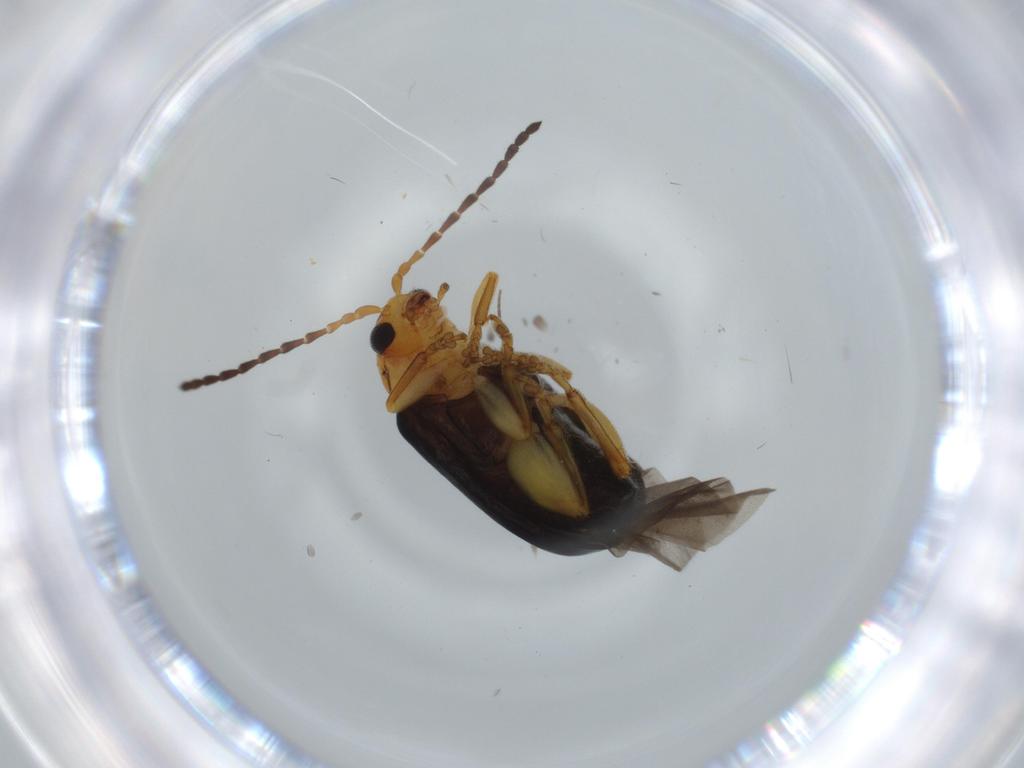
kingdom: Animalia
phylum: Arthropoda
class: Insecta
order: Coleoptera
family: Chrysomelidae
